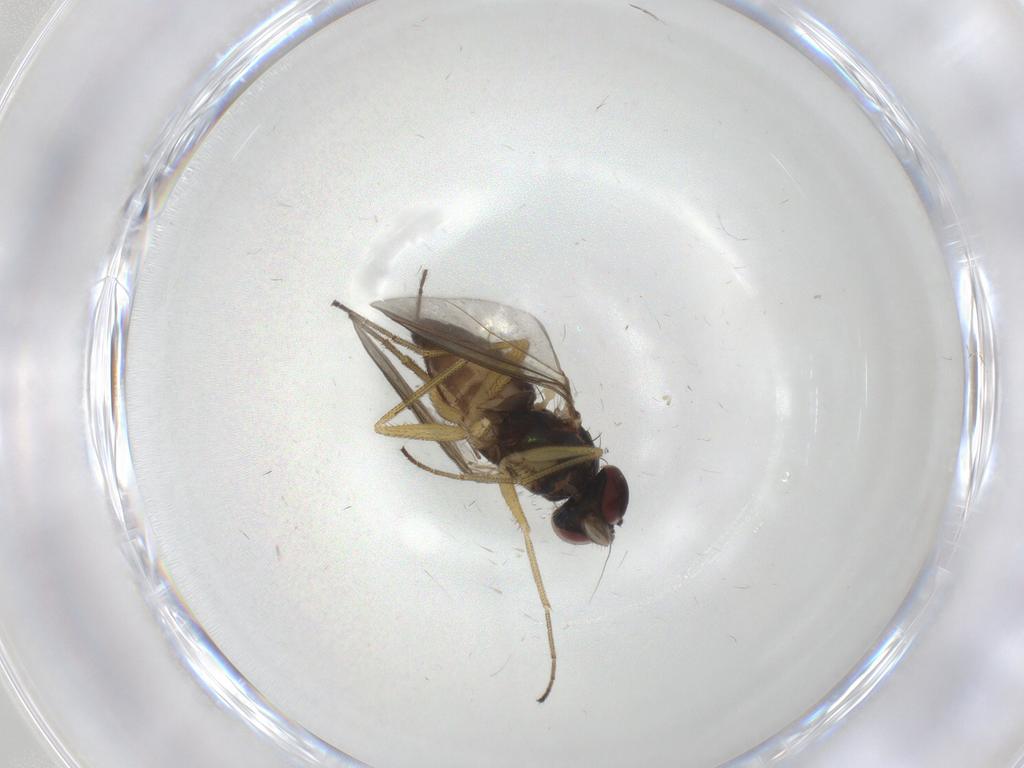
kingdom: Animalia
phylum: Arthropoda
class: Insecta
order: Diptera
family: Dolichopodidae
